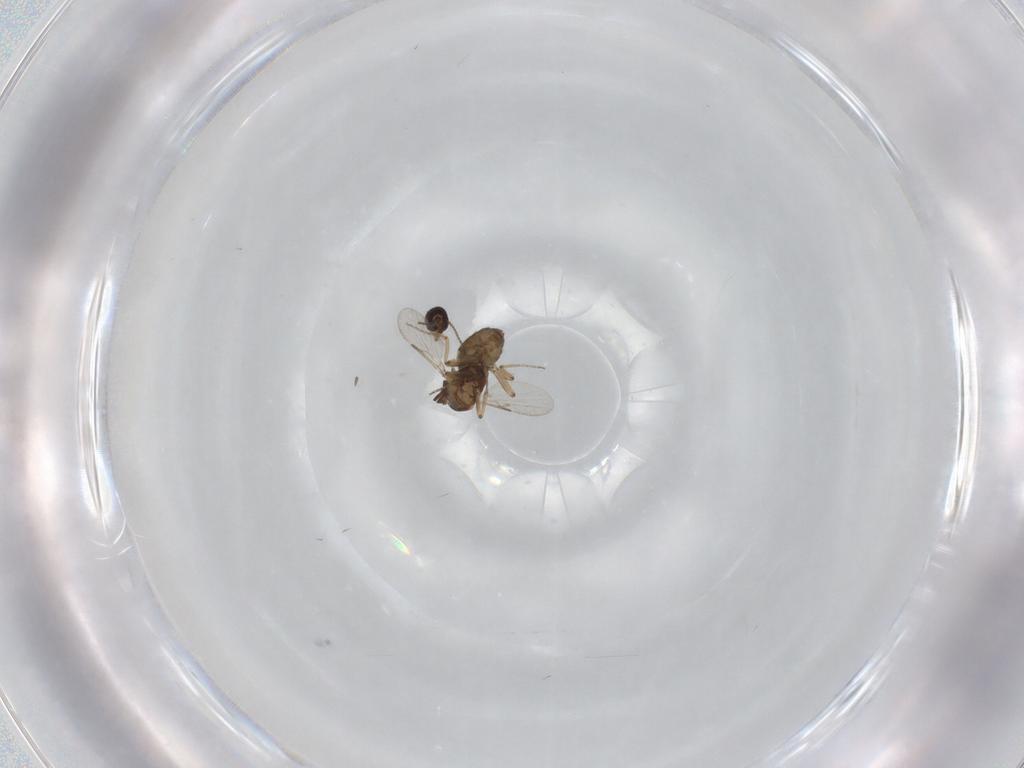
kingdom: Animalia
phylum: Arthropoda
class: Insecta
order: Diptera
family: Ceratopogonidae
